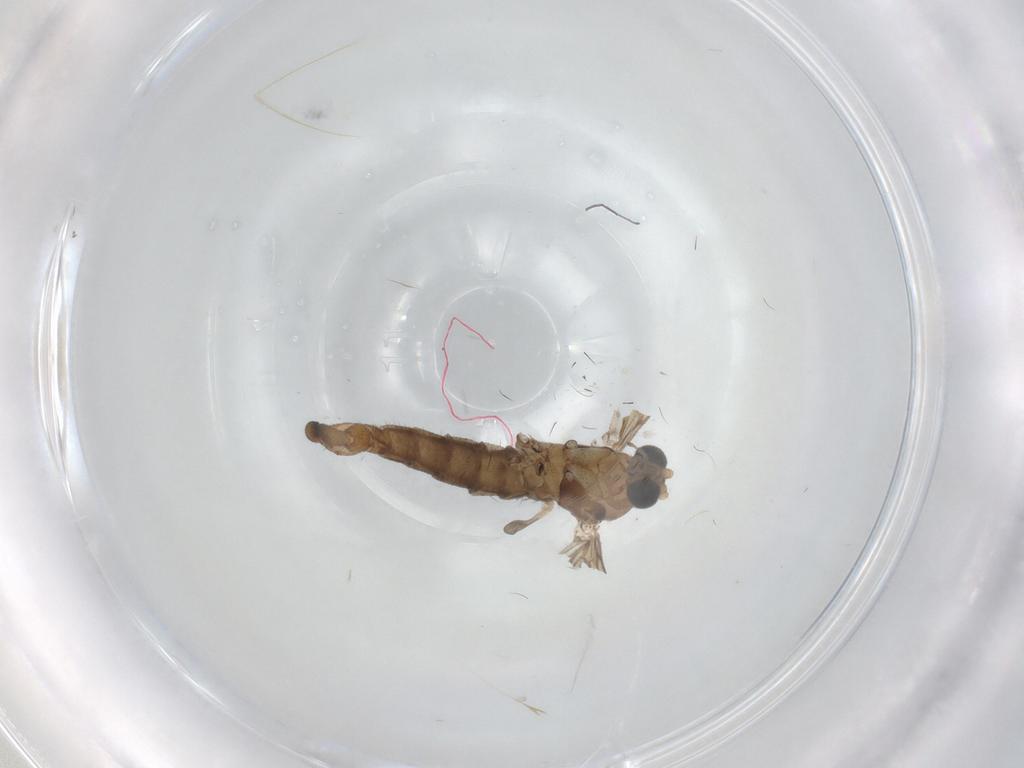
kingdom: Animalia
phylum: Arthropoda
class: Insecta
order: Diptera
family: Sciaridae
